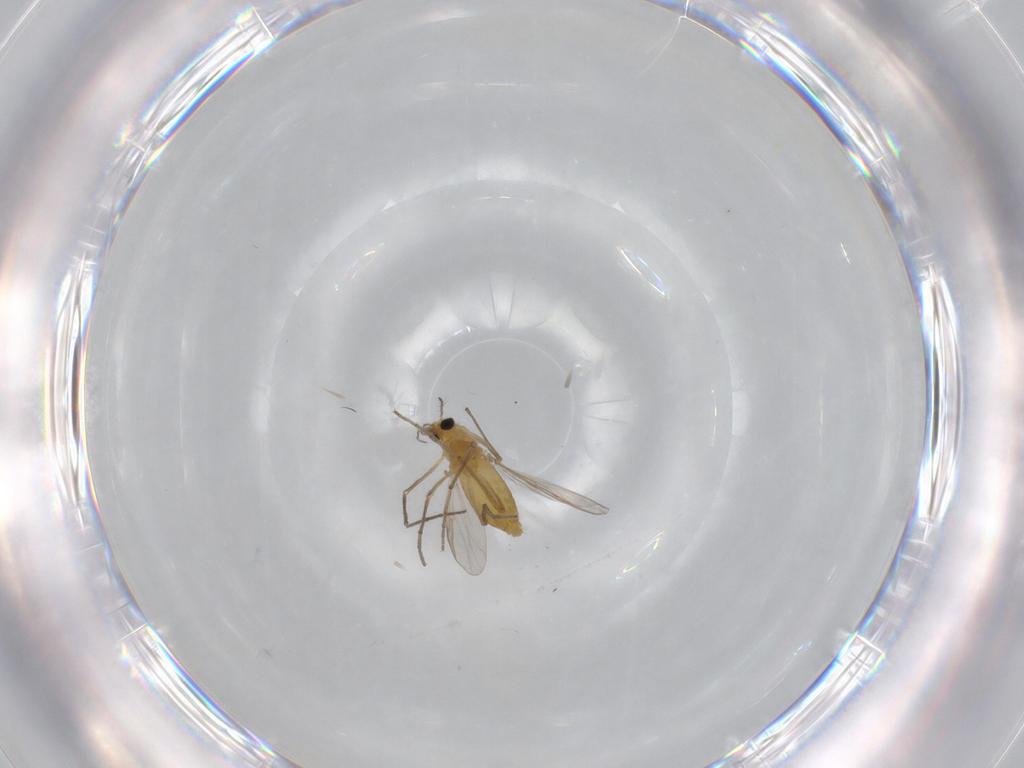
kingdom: Animalia
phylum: Arthropoda
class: Insecta
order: Diptera
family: Chironomidae
